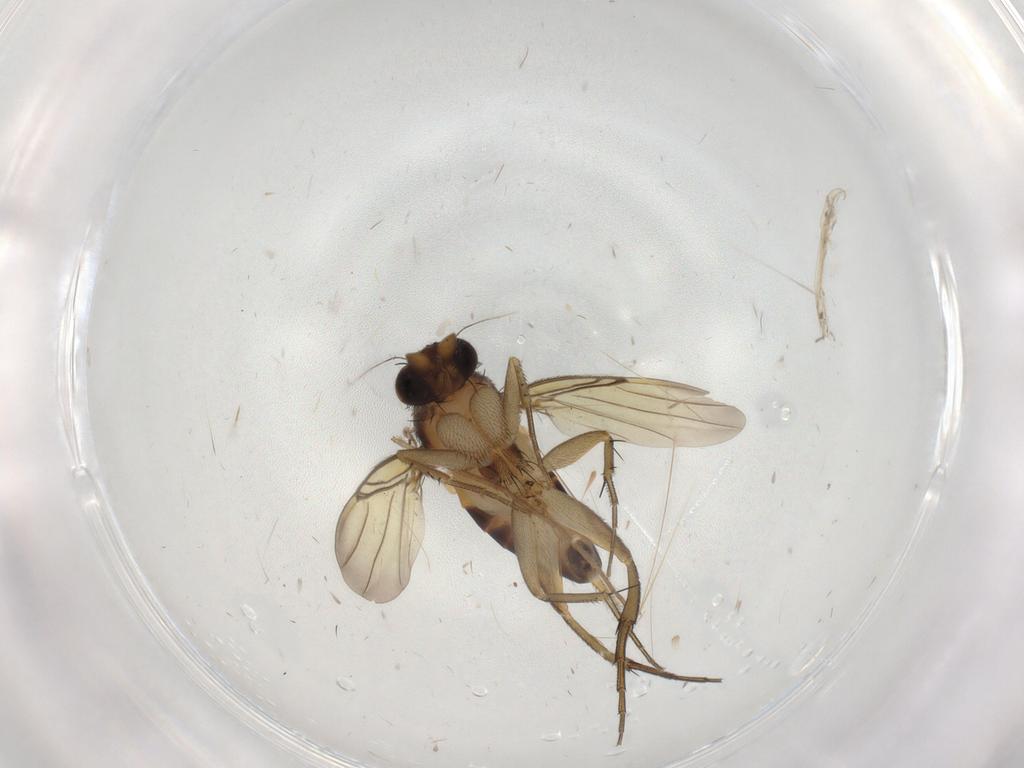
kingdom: Animalia
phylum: Arthropoda
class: Insecta
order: Diptera
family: Phoridae
